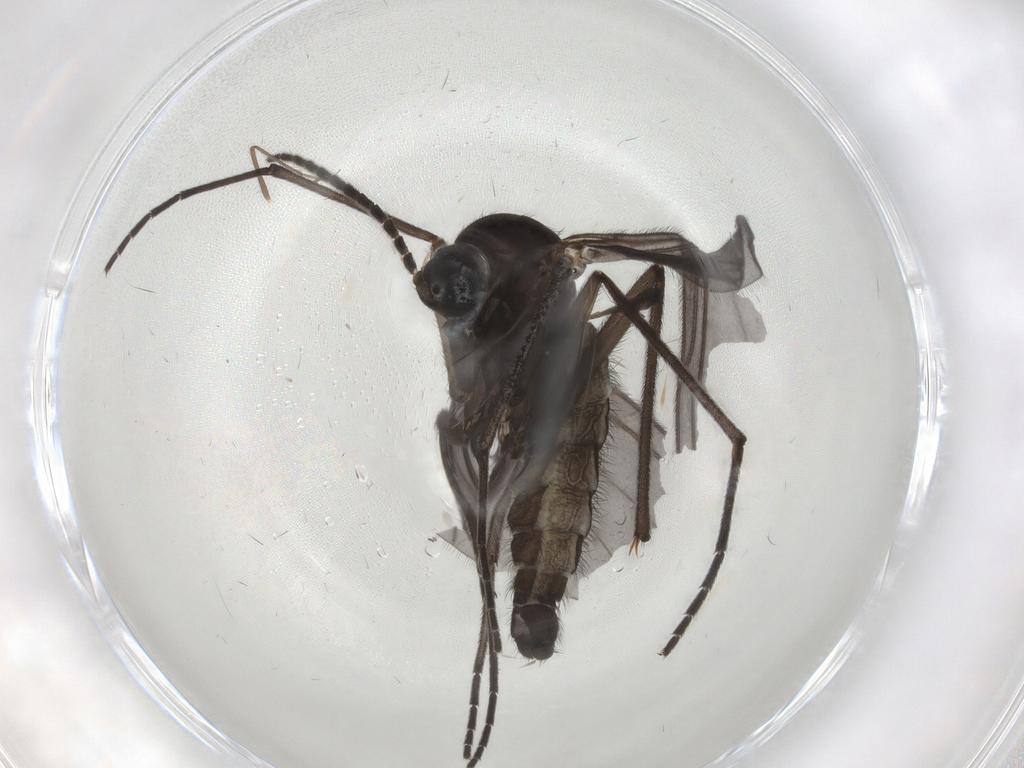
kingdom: Animalia
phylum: Arthropoda
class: Insecta
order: Diptera
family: Sciaridae
